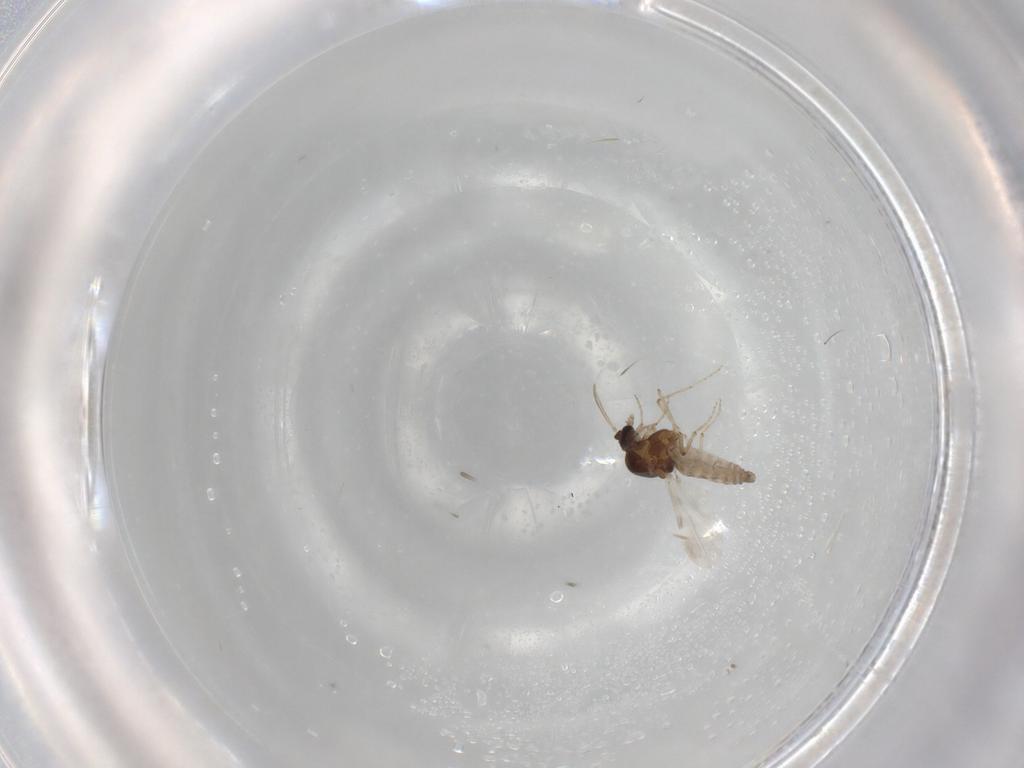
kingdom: Animalia
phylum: Arthropoda
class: Insecta
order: Diptera
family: Ceratopogonidae
